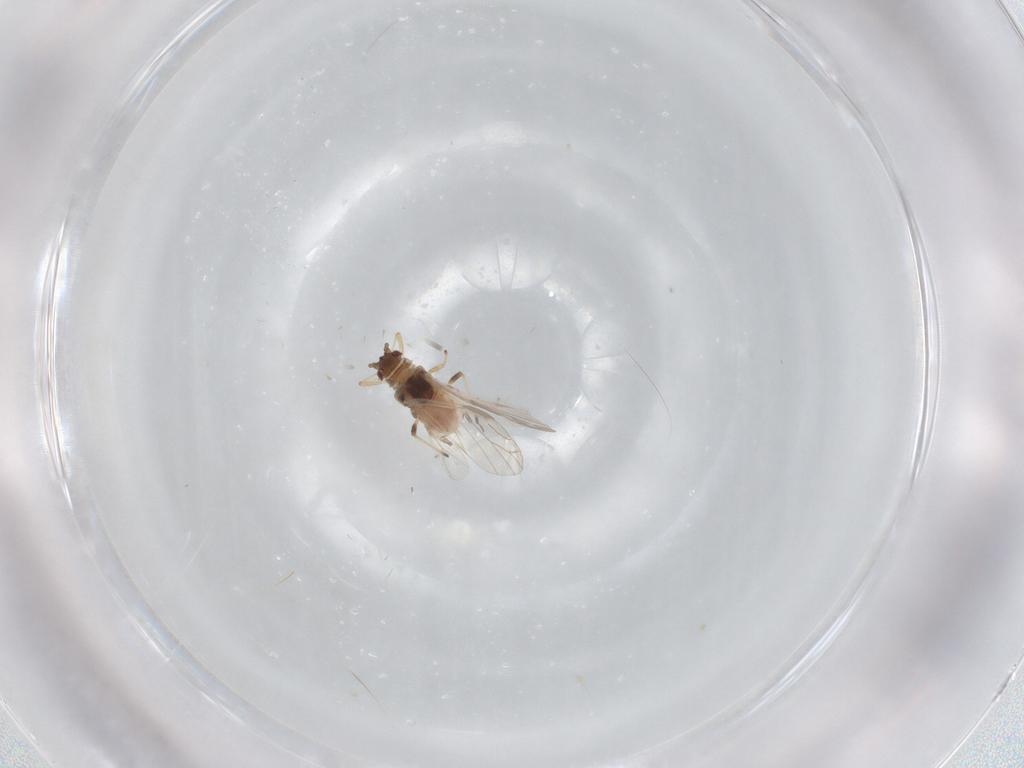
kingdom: Animalia
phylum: Arthropoda
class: Insecta
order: Hemiptera
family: Aphididae
